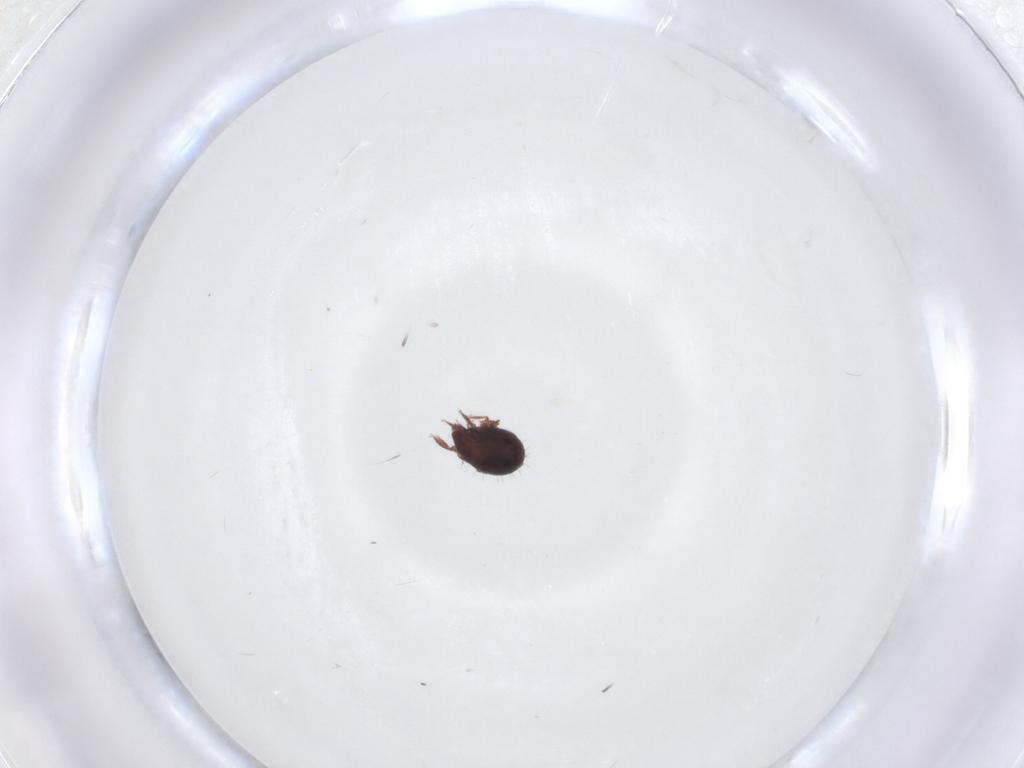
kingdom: Animalia
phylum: Arthropoda
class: Arachnida
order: Sarcoptiformes
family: Humerobatidae
